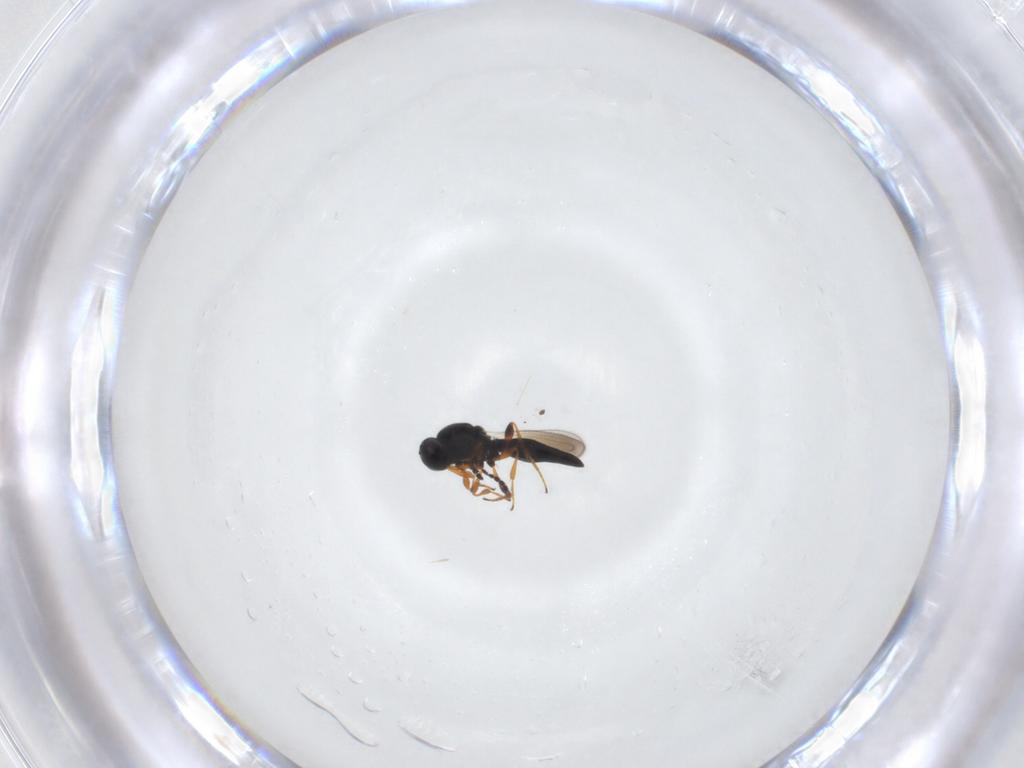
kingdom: Animalia
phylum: Arthropoda
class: Insecta
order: Hymenoptera
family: Platygastridae
